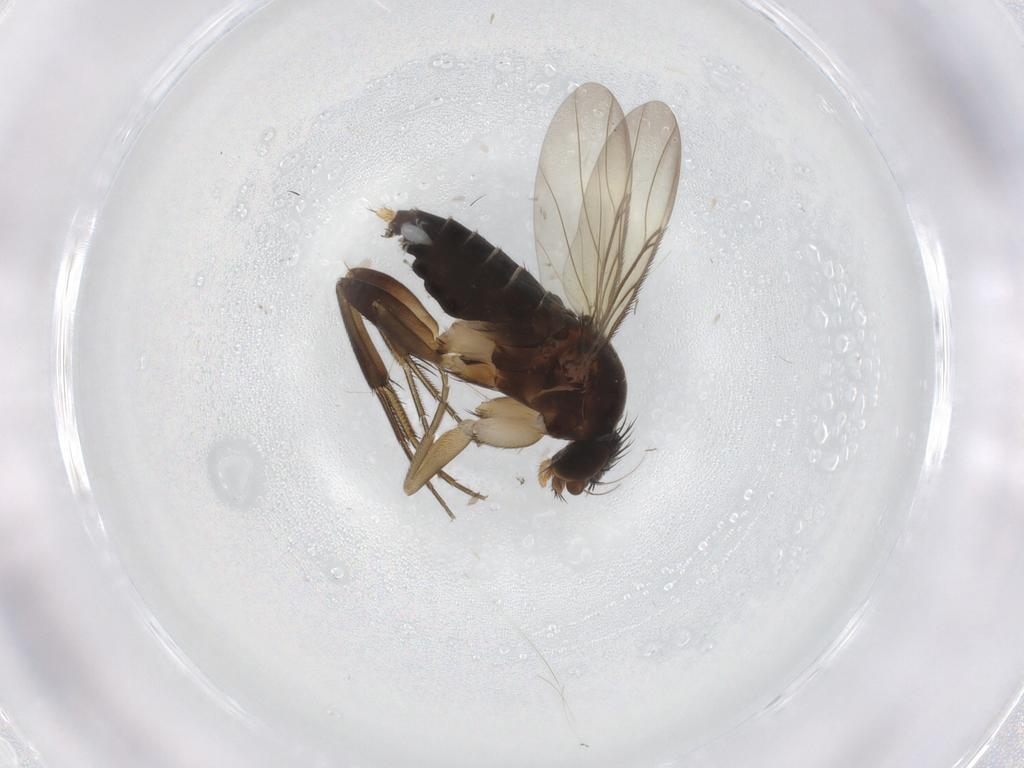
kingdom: Animalia
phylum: Arthropoda
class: Insecta
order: Diptera
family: Phoridae
